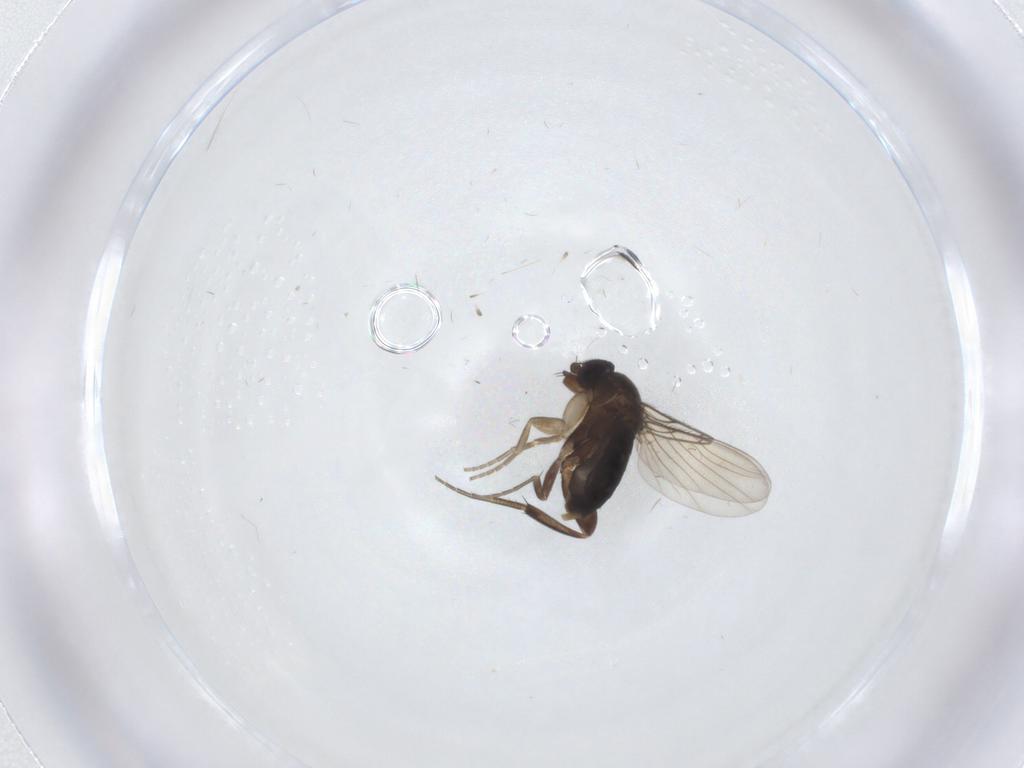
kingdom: Animalia
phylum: Arthropoda
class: Insecta
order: Diptera
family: Phoridae
